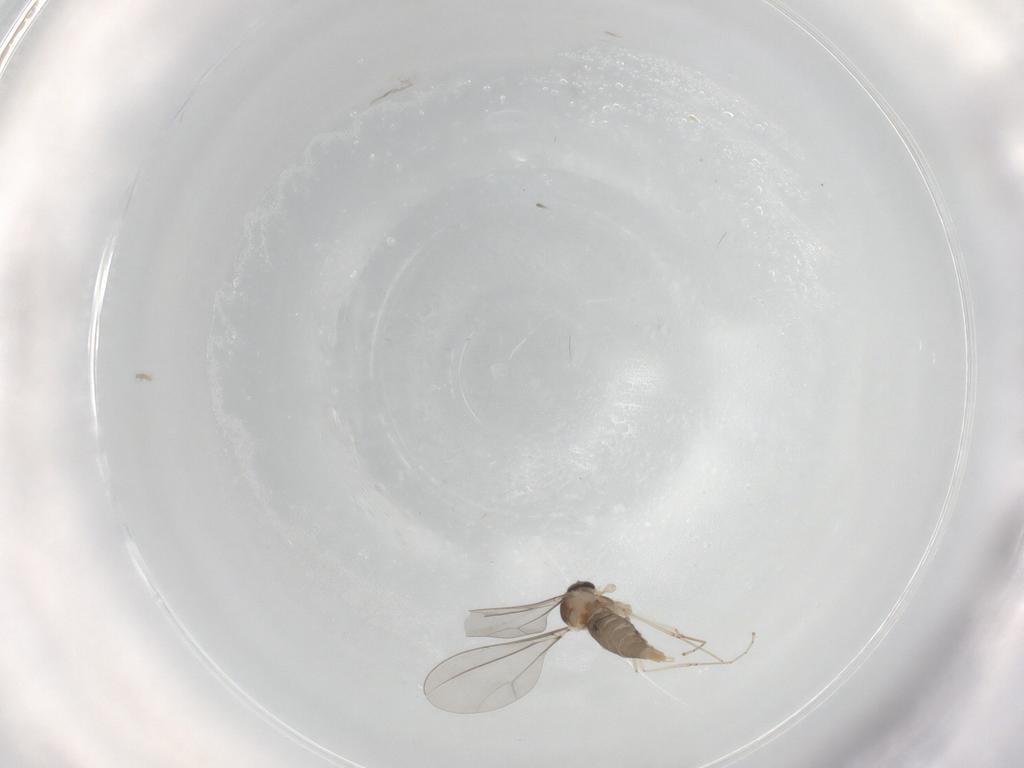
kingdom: Animalia
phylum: Arthropoda
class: Insecta
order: Diptera
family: Cecidomyiidae
